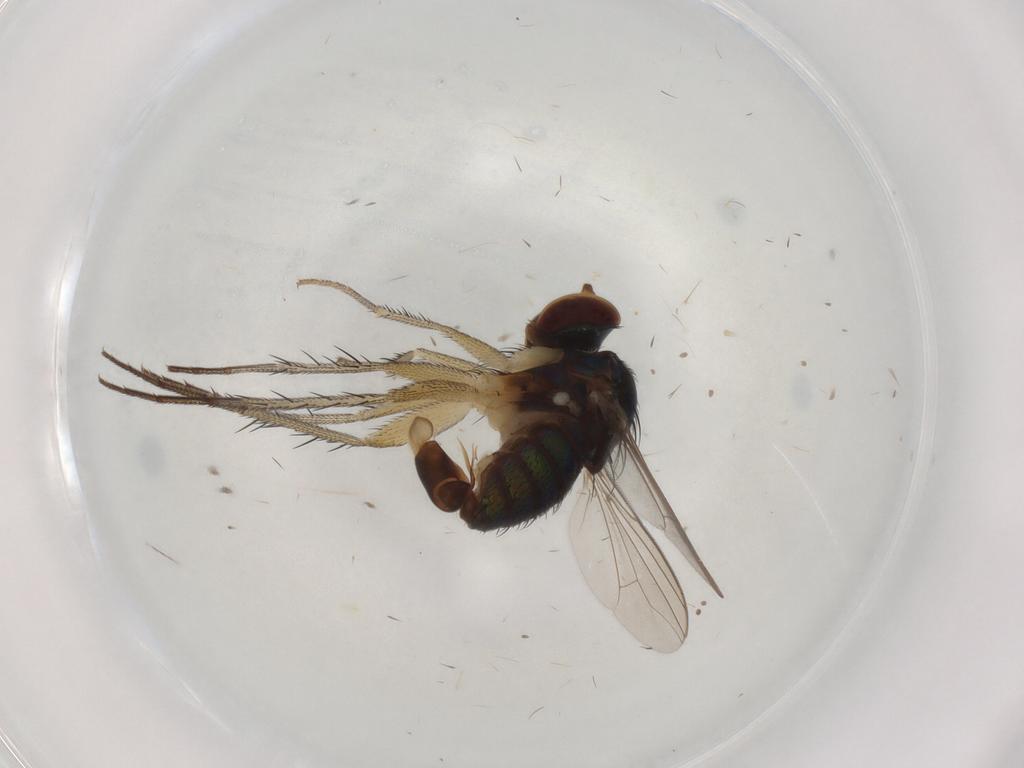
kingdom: Animalia
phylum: Arthropoda
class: Insecta
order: Diptera
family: Dolichopodidae
